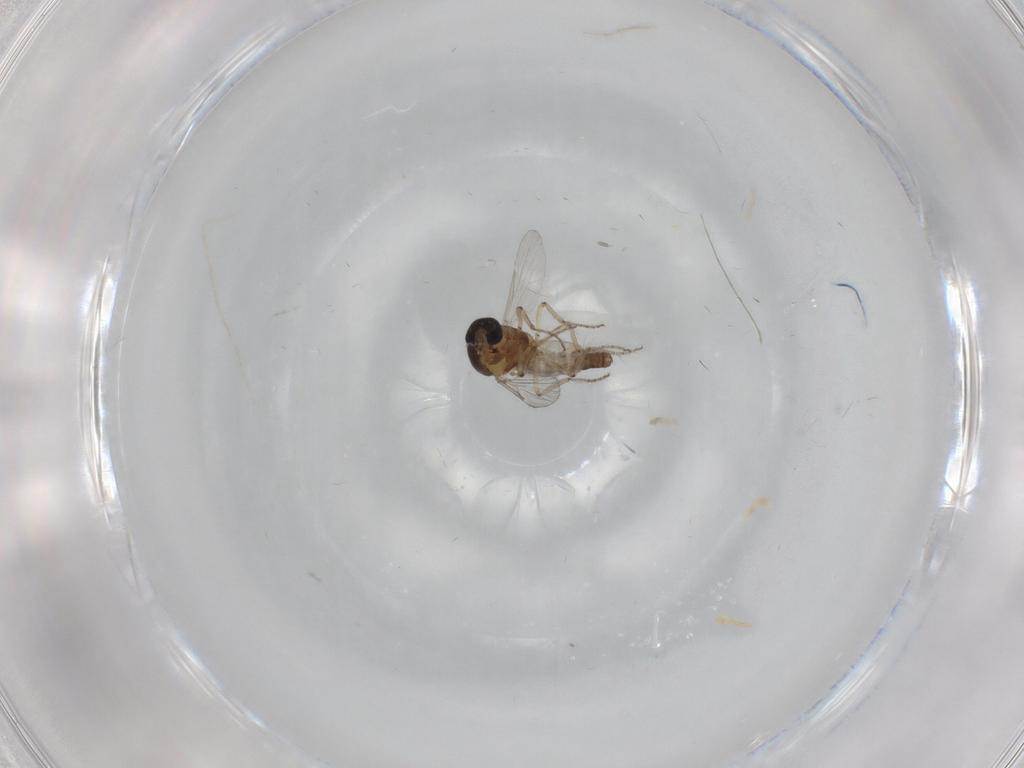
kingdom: Animalia
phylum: Arthropoda
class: Insecta
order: Diptera
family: Ceratopogonidae
